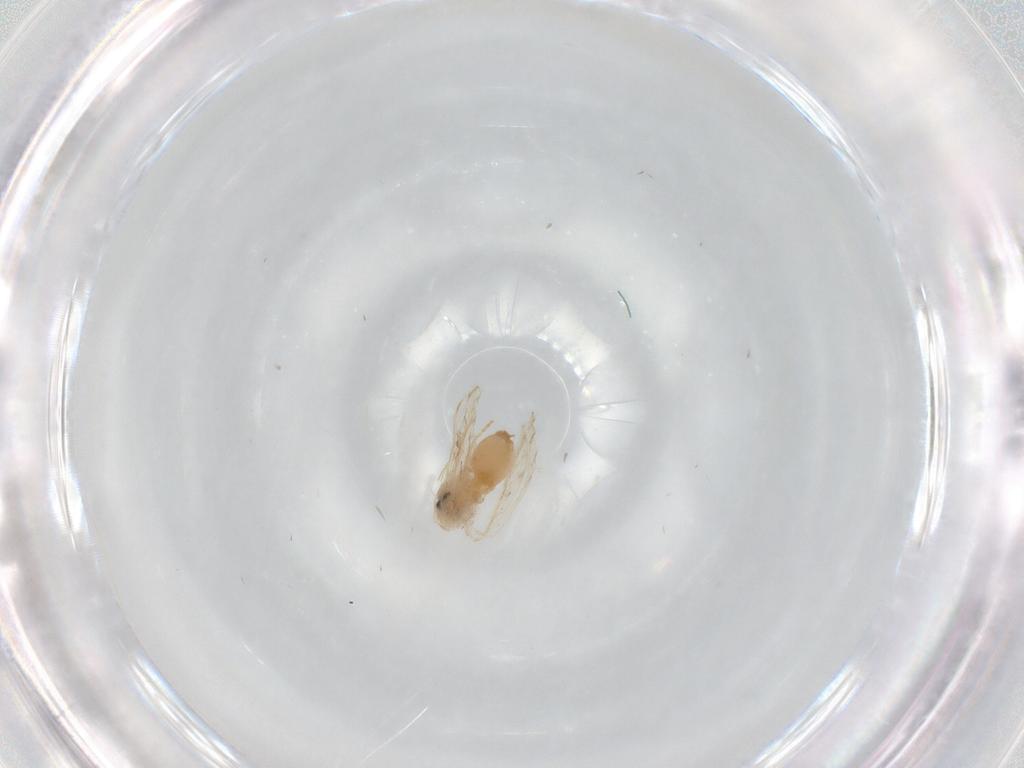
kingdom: Animalia
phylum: Arthropoda
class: Insecta
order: Diptera
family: Psychodidae
